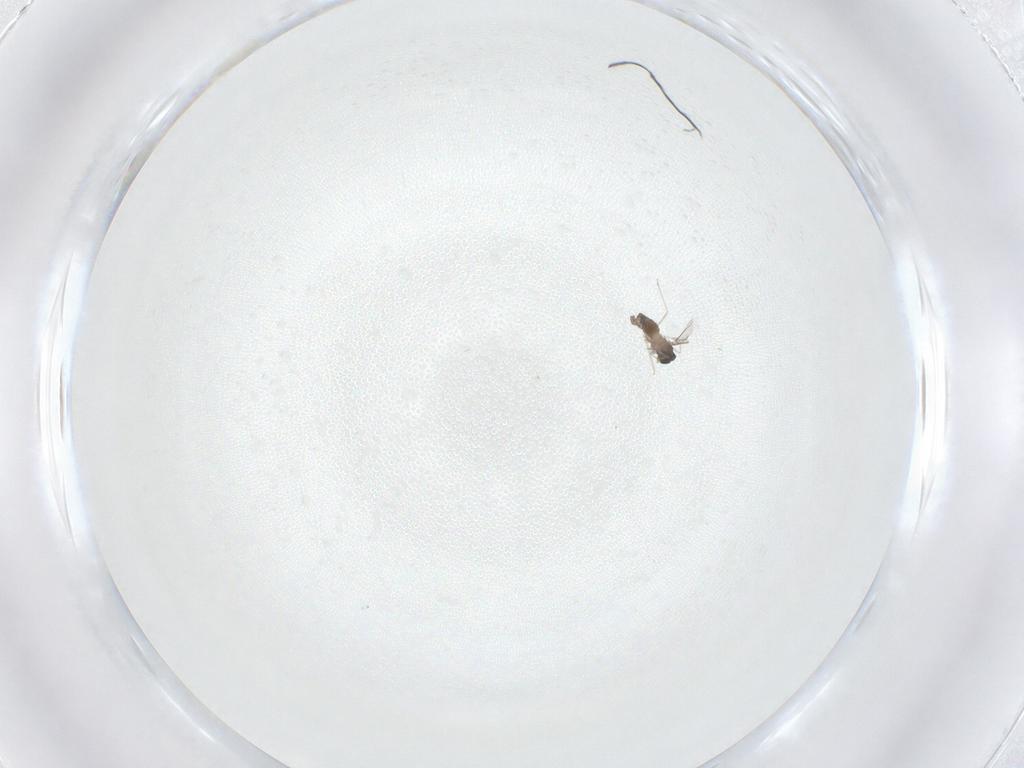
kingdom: Animalia
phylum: Arthropoda
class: Insecta
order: Diptera
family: Cecidomyiidae
